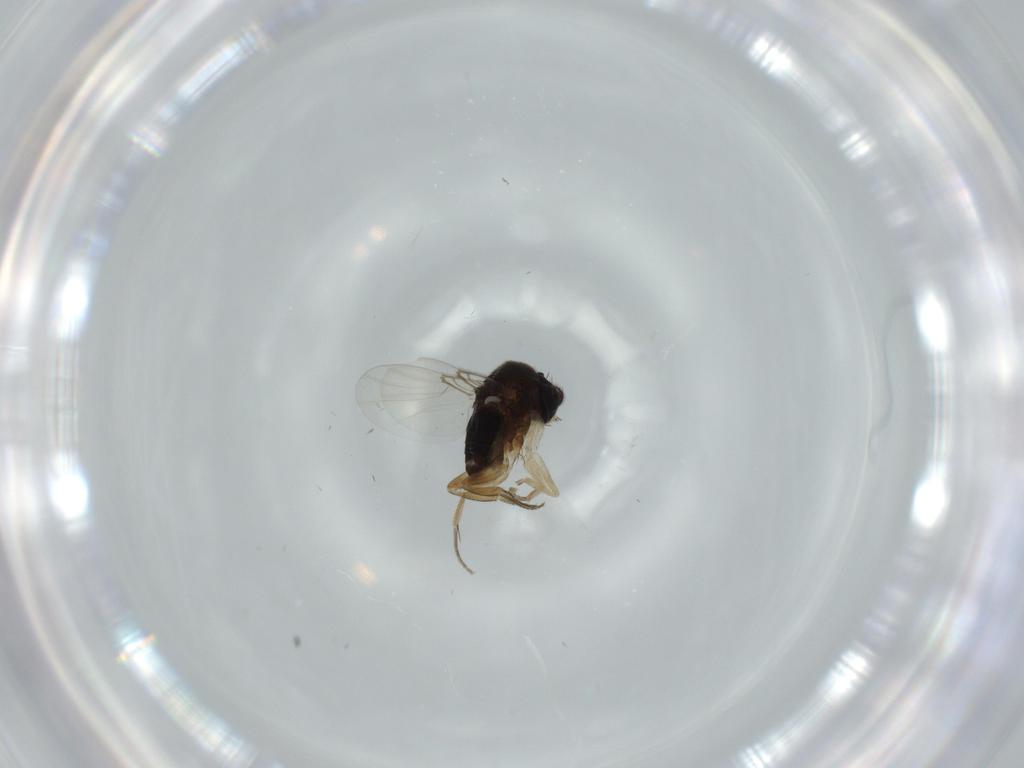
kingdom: Animalia
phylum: Arthropoda
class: Insecta
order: Diptera
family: Phoridae
